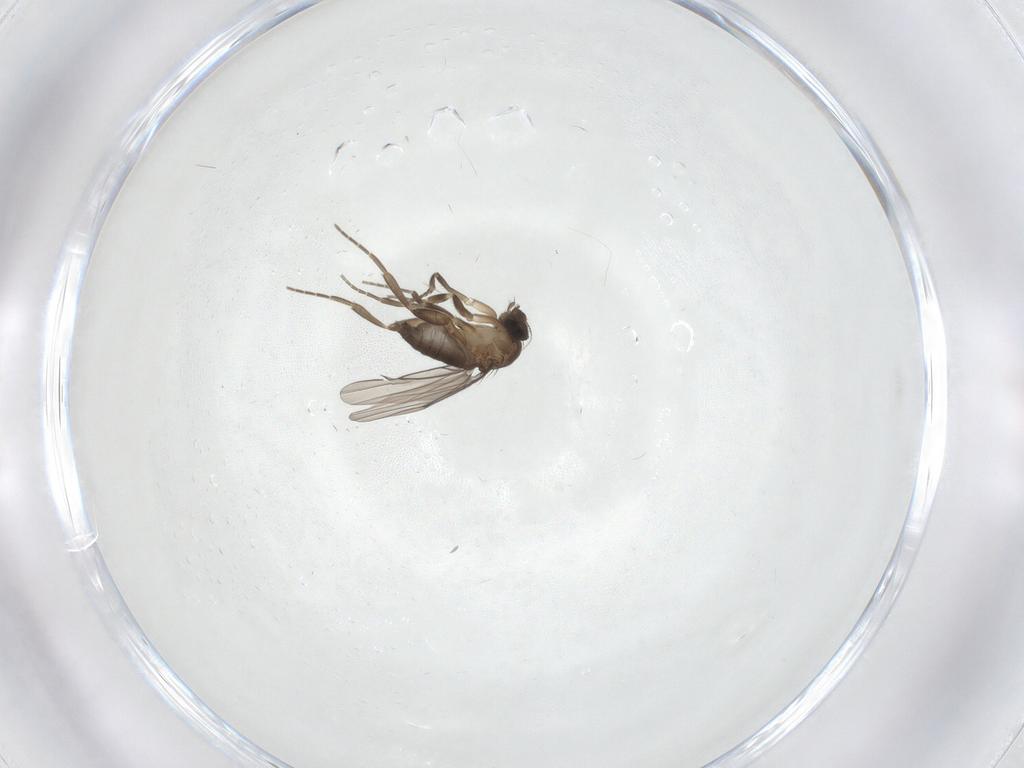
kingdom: Animalia
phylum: Arthropoda
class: Insecta
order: Diptera
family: Phoridae
